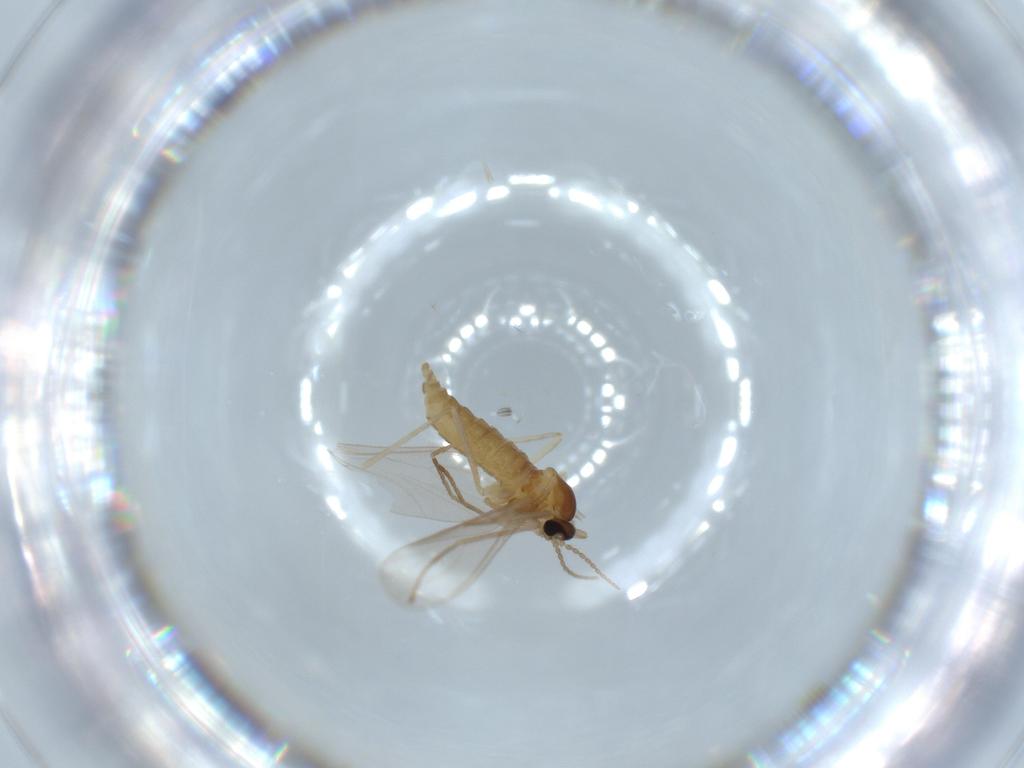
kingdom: Animalia
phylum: Arthropoda
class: Insecta
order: Diptera
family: Cecidomyiidae
